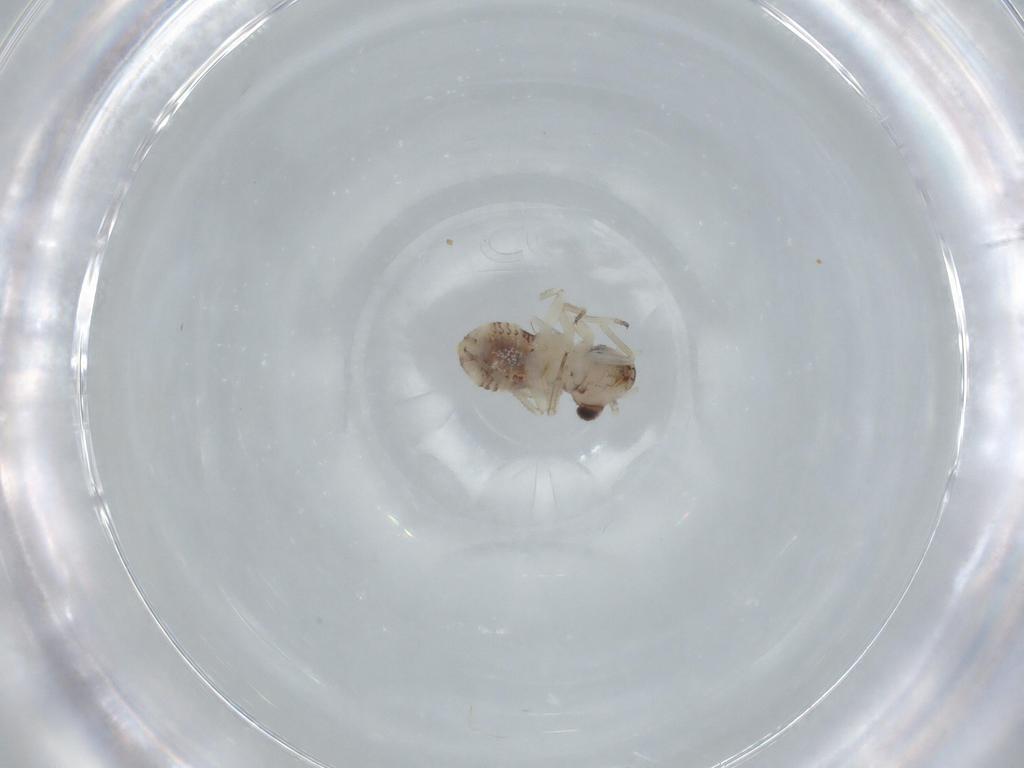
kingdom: Animalia
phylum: Arthropoda
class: Insecta
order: Psocodea
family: Psocidae
